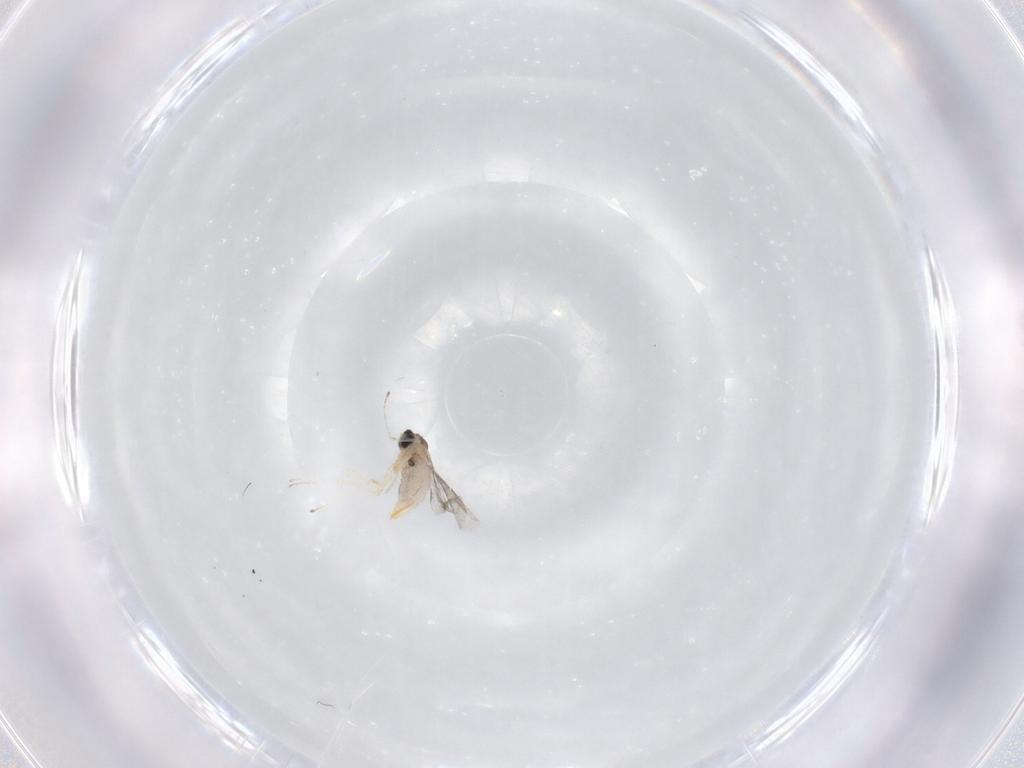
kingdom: Animalia
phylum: Arthropoda
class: Insecta
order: Diptera
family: Cecidomyiidae
